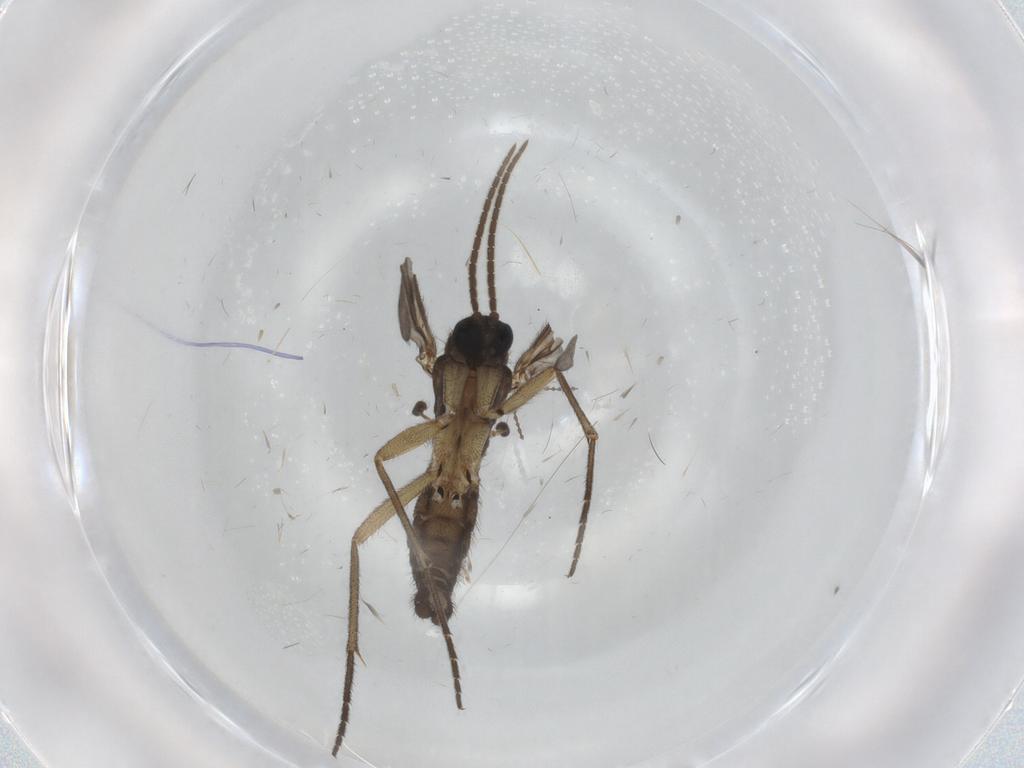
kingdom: Animalia
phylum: Arthropoda
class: Insecta
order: Diptera
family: Sciaridae
